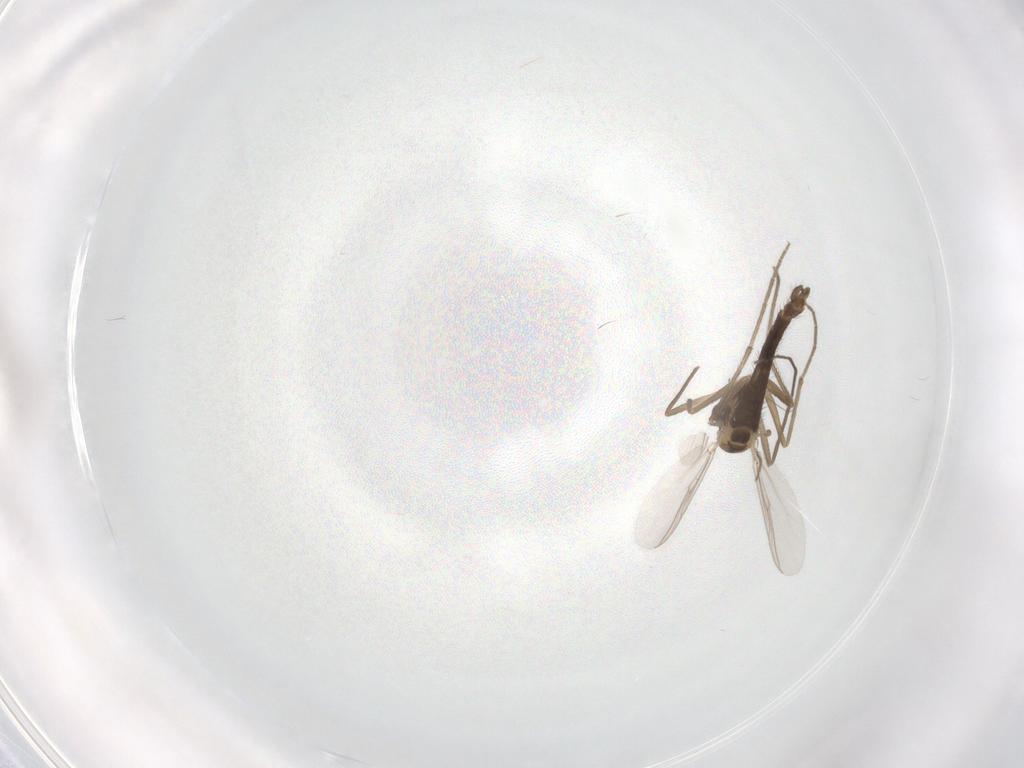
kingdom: Animalia
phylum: Arthropoda
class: Insecta
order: Diptera
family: Chironomidae
